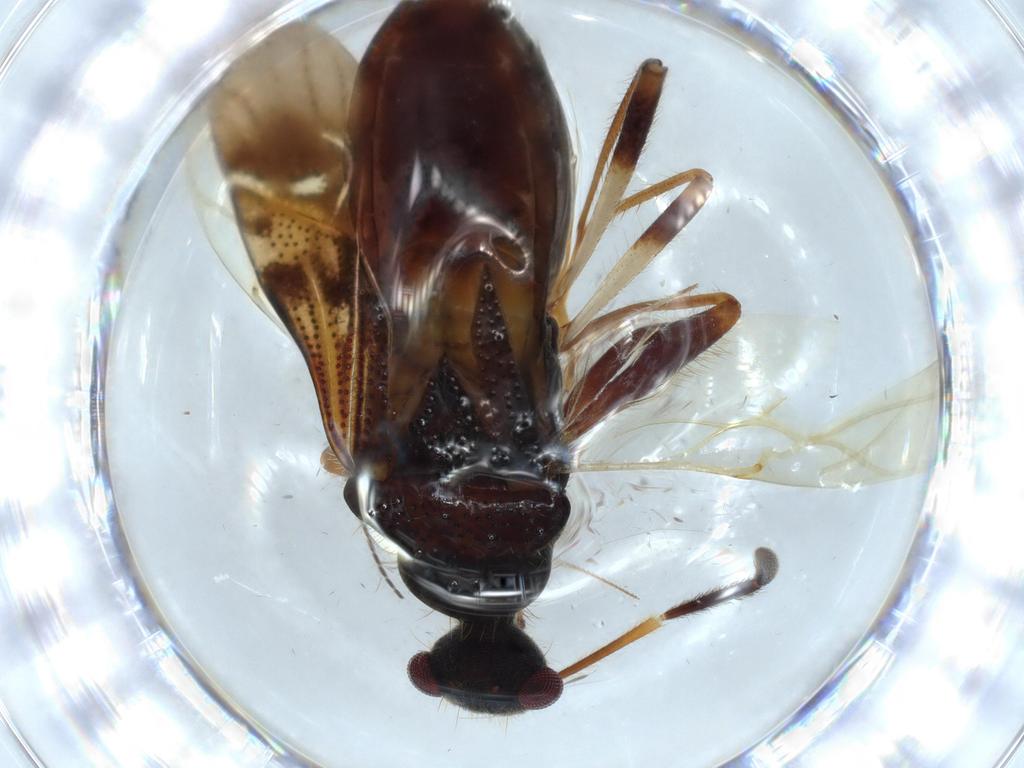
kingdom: Animalia
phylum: Arthropoda
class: Insecta
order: Hemiptera
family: Rhyparochromidae
